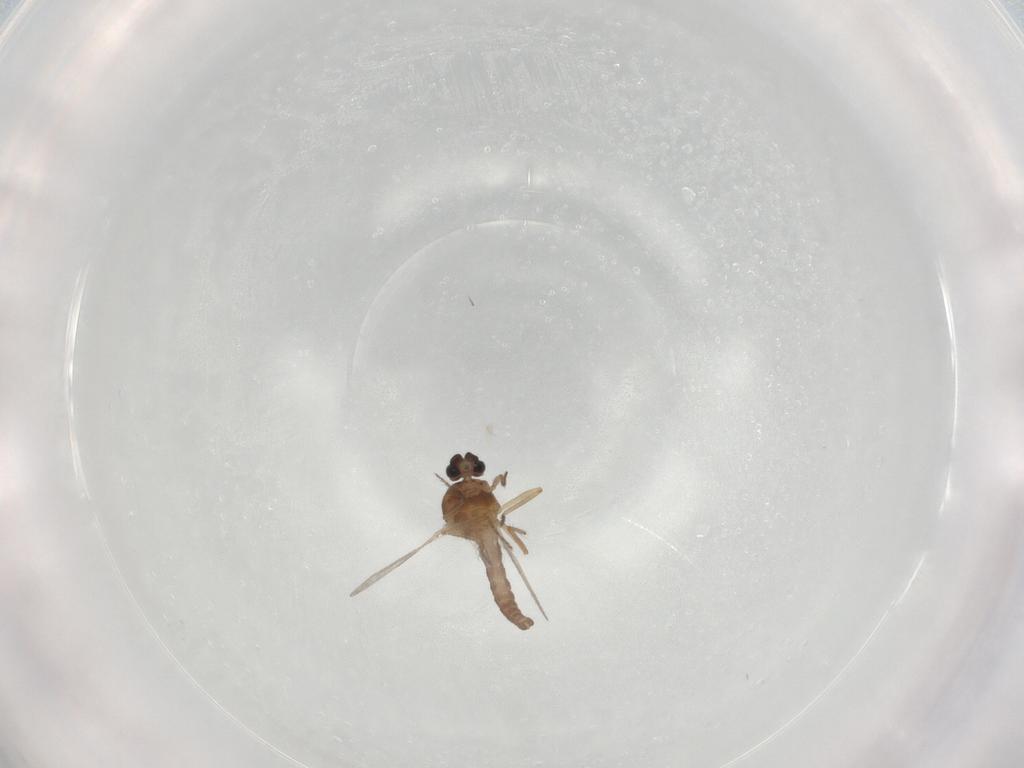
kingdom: Animalia
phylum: Arthropoda
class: Insecta
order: Diptera
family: Ceratopogonidae
